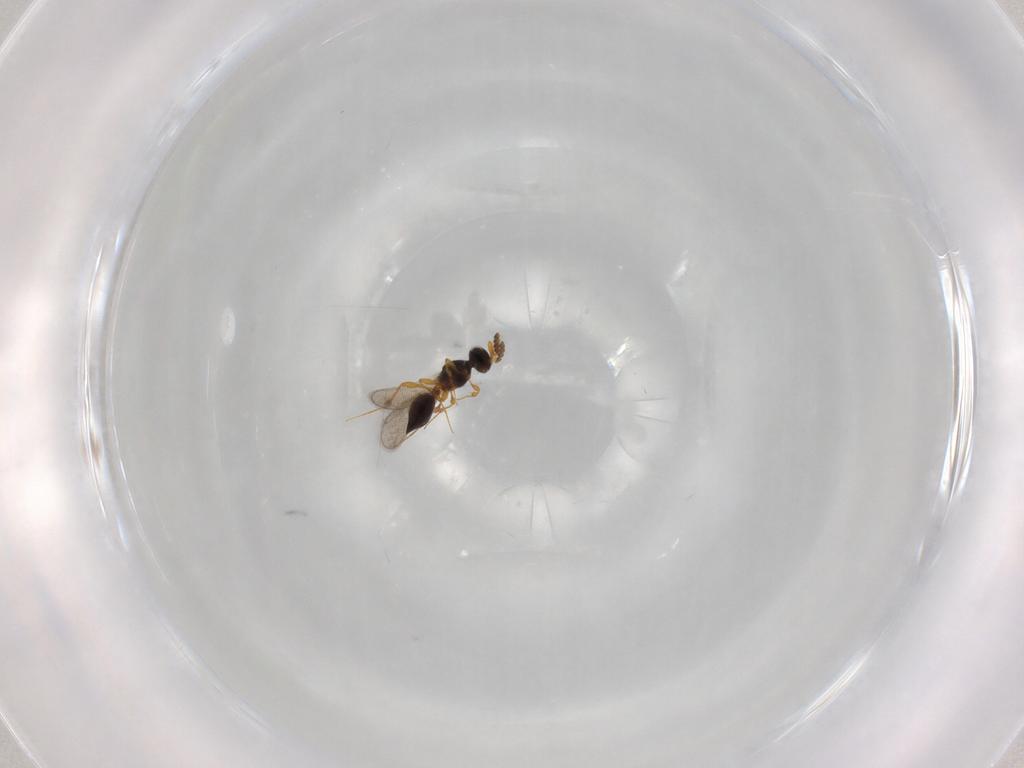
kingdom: Animalia
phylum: Arthropoda
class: Insecta
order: Hymenoptera
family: Platygastridae
